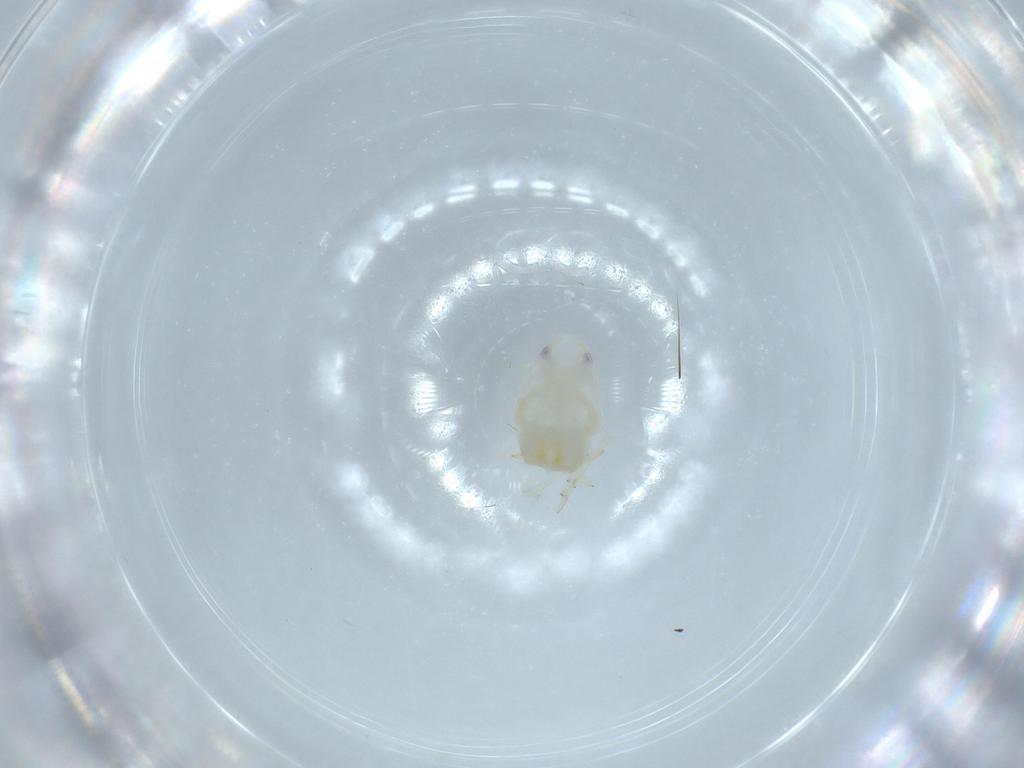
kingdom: Animalia
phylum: Arthropoda
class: Insecta
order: Hemiptera
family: Flatidae
